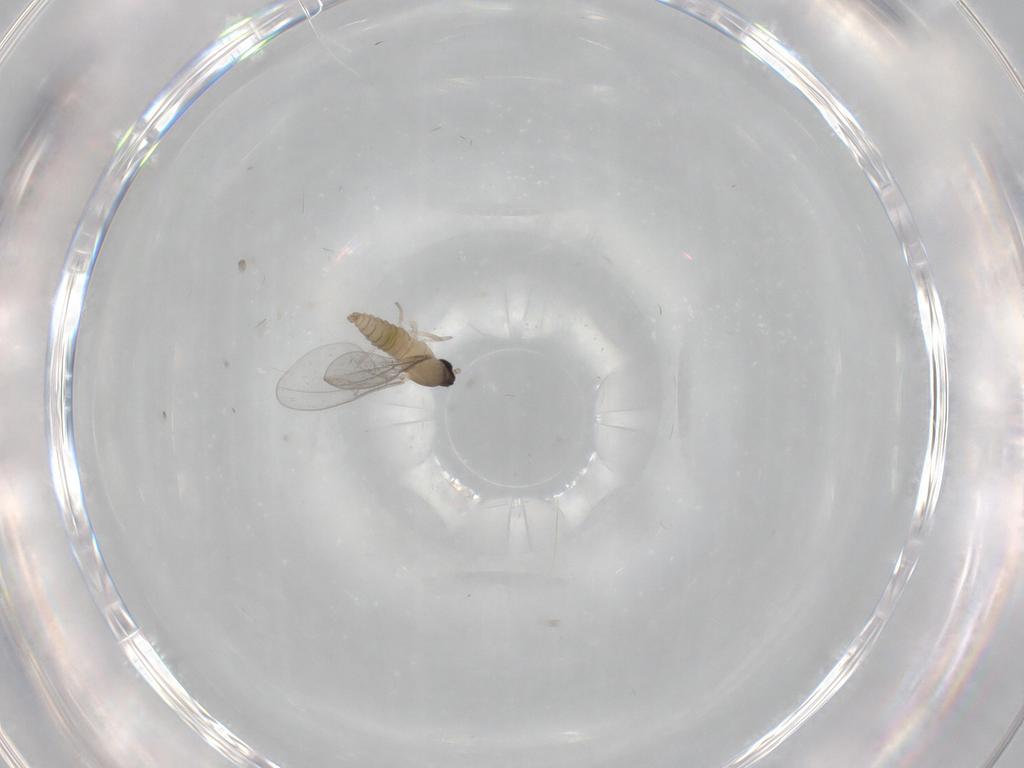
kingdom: Animalia
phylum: Arthropoda
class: Insecta
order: Diptera
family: Cecidomyiidae
